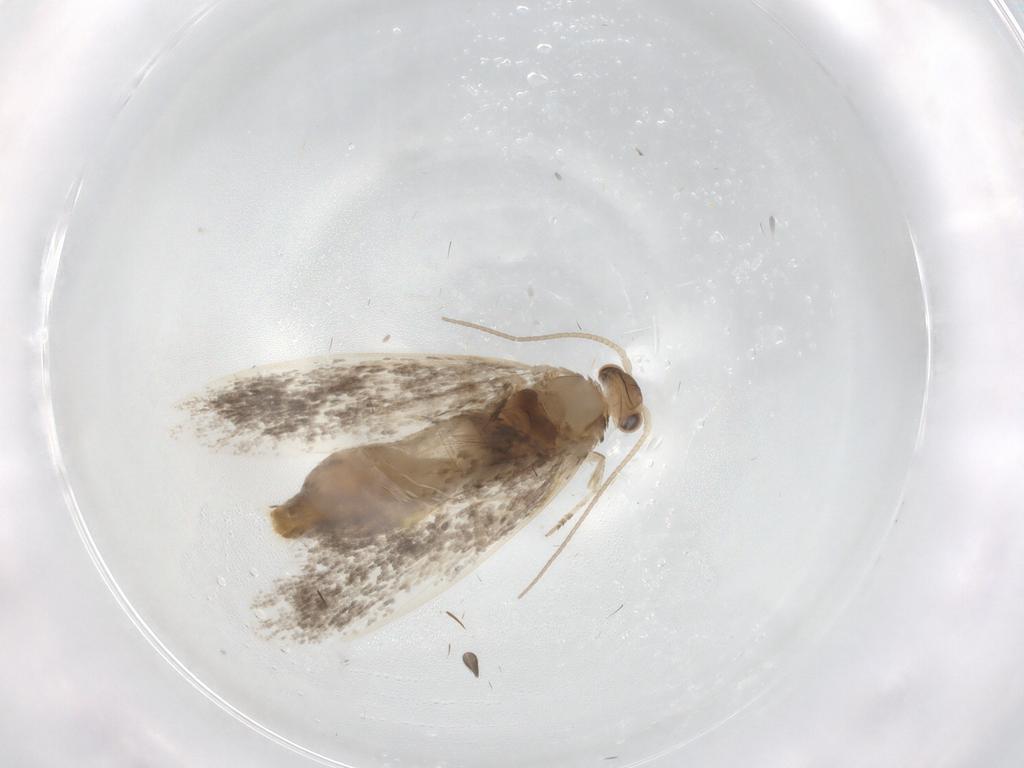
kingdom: Animalia
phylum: Arthropoda
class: Insecta
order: Lepidoptera
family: Dryadaulidae
